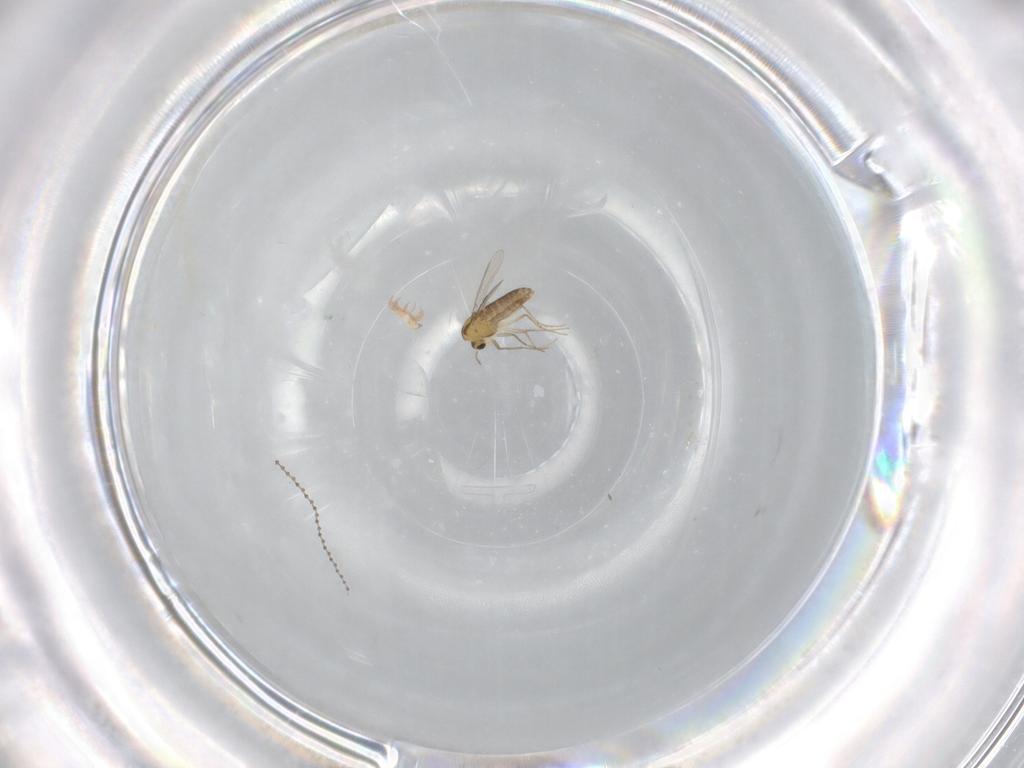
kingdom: Animalia
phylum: Arthropoda
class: Insecta
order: Diptera
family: Chironomidae
